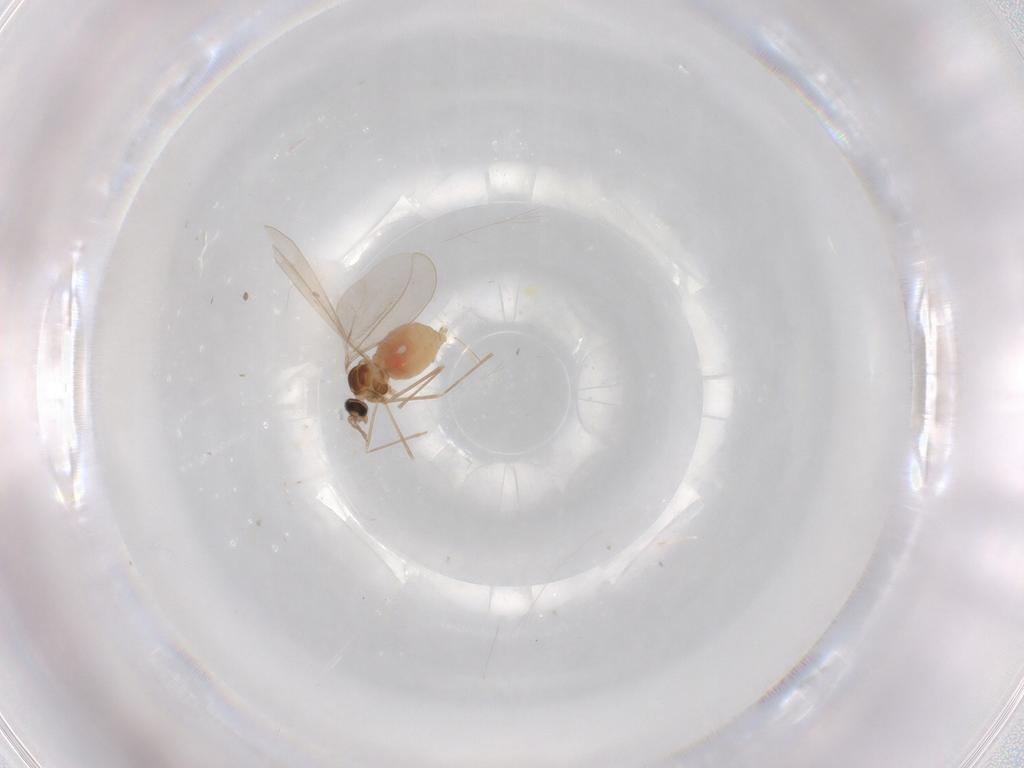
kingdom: Animalia
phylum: Arthropoda
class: Insecta
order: Diptera
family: Cecidomyiidae
